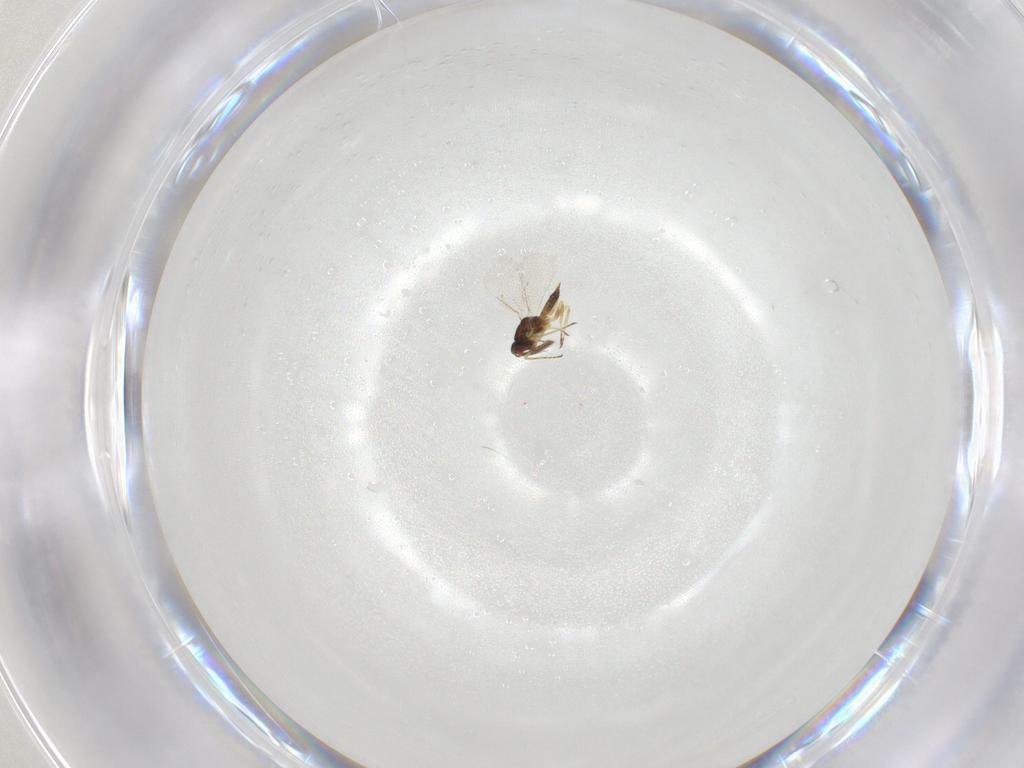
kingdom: Animalia
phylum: Arthropoda
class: Insecta
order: Hymenoptera
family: Eulophidae
